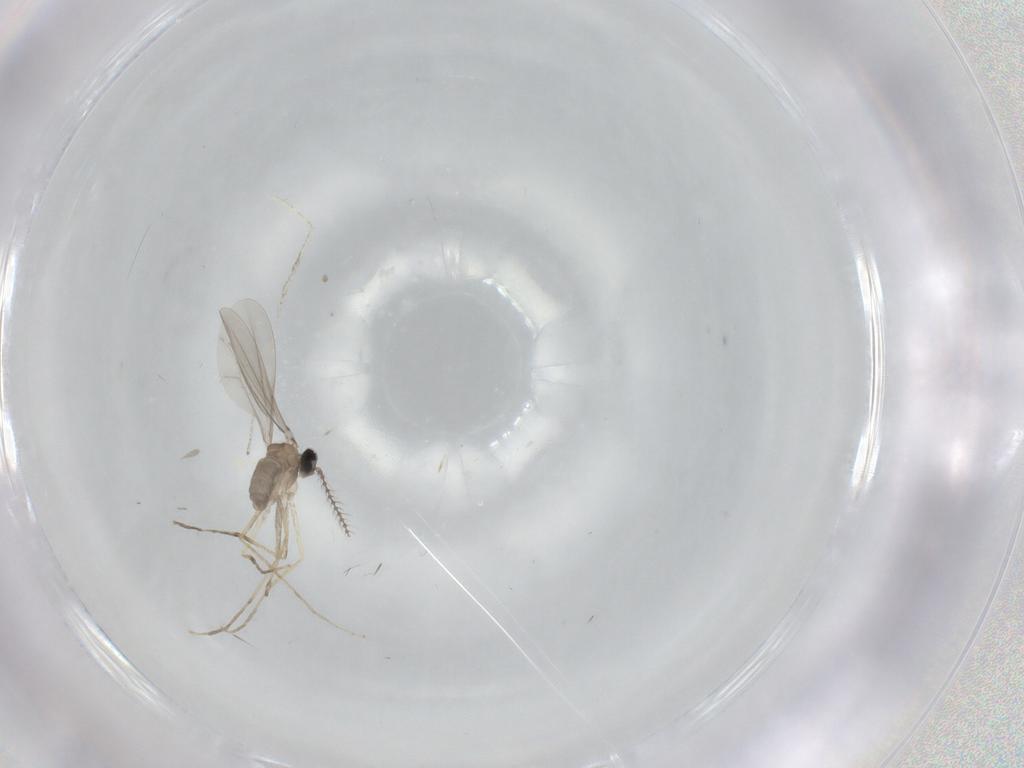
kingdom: Animalia
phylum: Arthropoda
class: Insecta
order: Diptera
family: Cecidomyiidae
